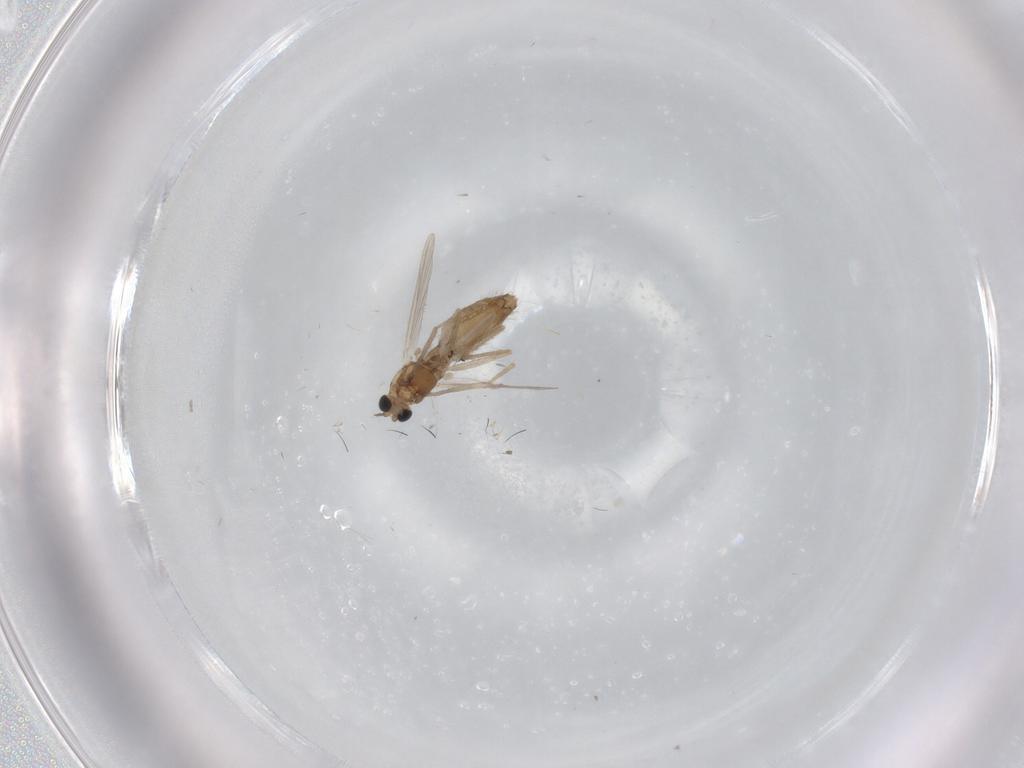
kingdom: Animalia
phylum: Arthropoda
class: Insecta
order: Diptera
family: Chironomidae
